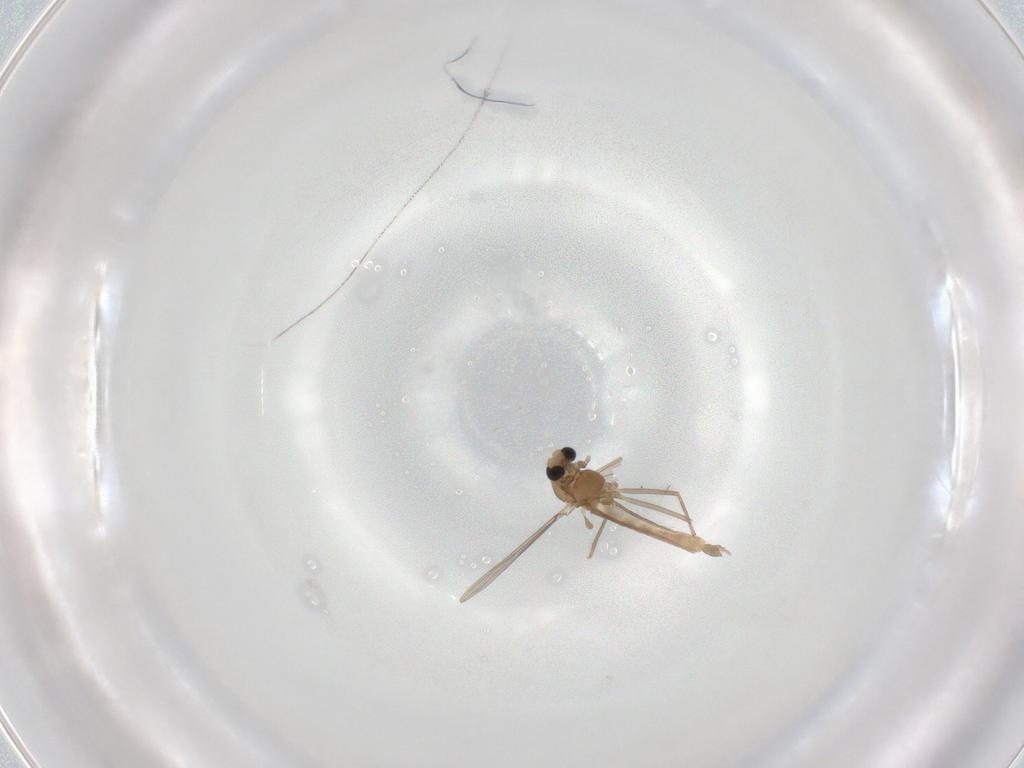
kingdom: Animalia
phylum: Arthropoda
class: Insecta
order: Diptera
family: Chironomidae
